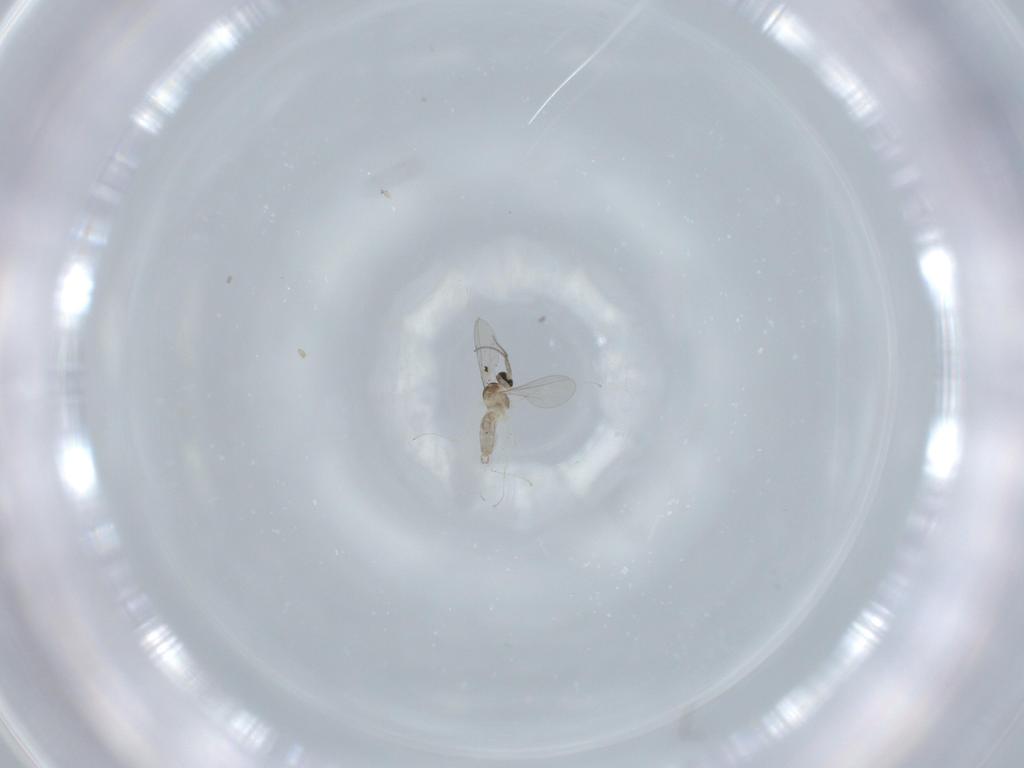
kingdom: Animalia
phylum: Arthropoda
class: Insecta
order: Diptera
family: Cecidomyiidae
